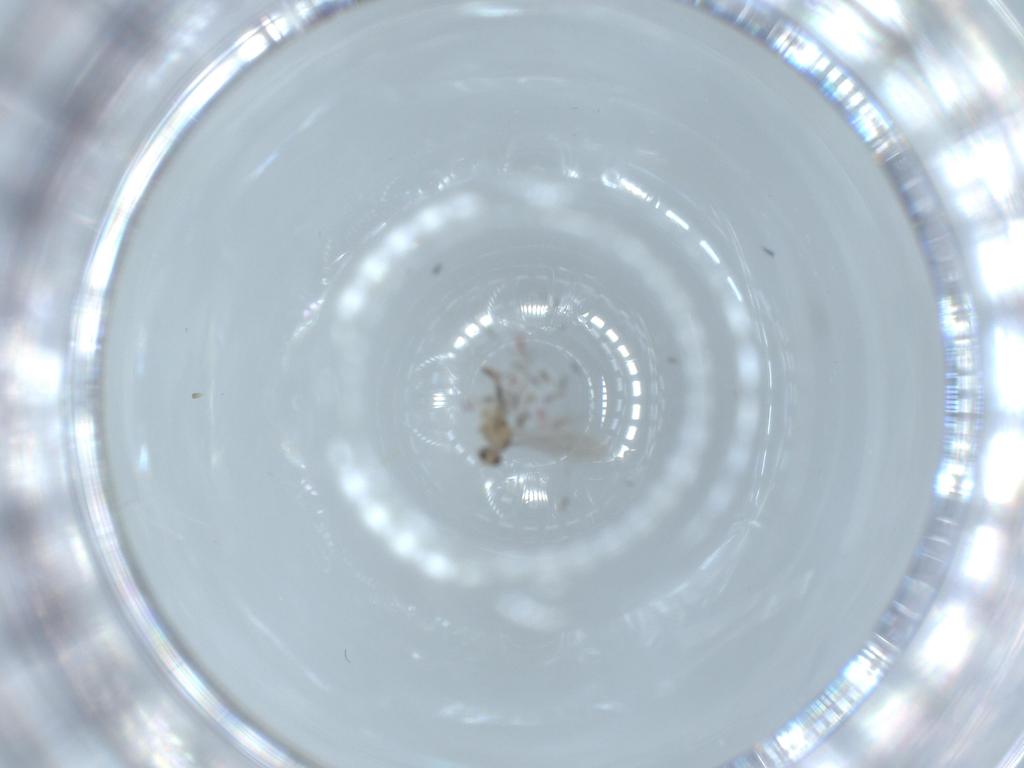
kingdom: Animalia
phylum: Arthropoda
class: Insecta
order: Diptera
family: Cecidomyiidae
